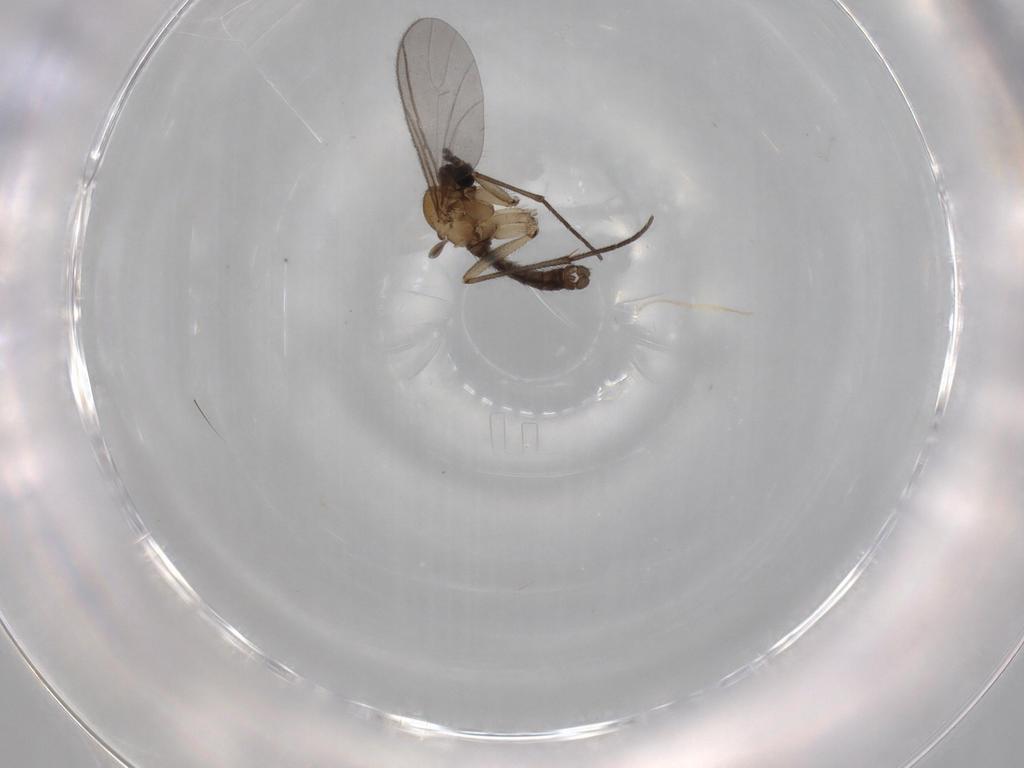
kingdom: Animalia
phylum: Arthropoda
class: Insecta
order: Diptera
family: Sciaridae
